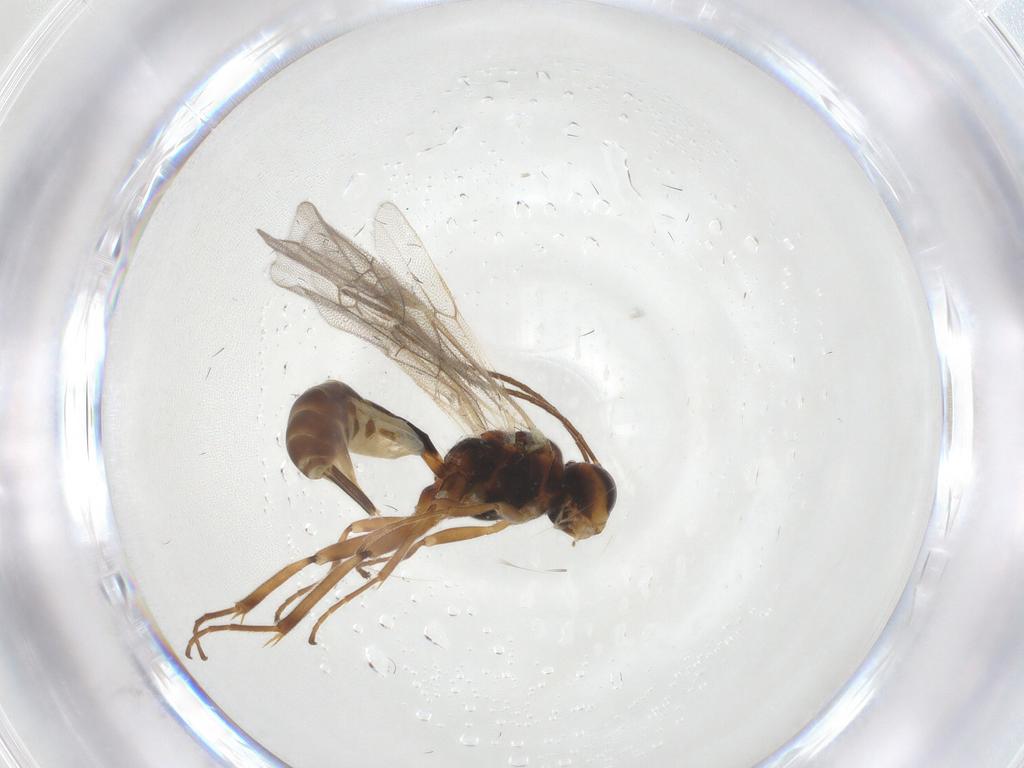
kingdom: Animalia
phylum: Arthropoda
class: Insecta
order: Hymenoptera
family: Ichneumonidae
